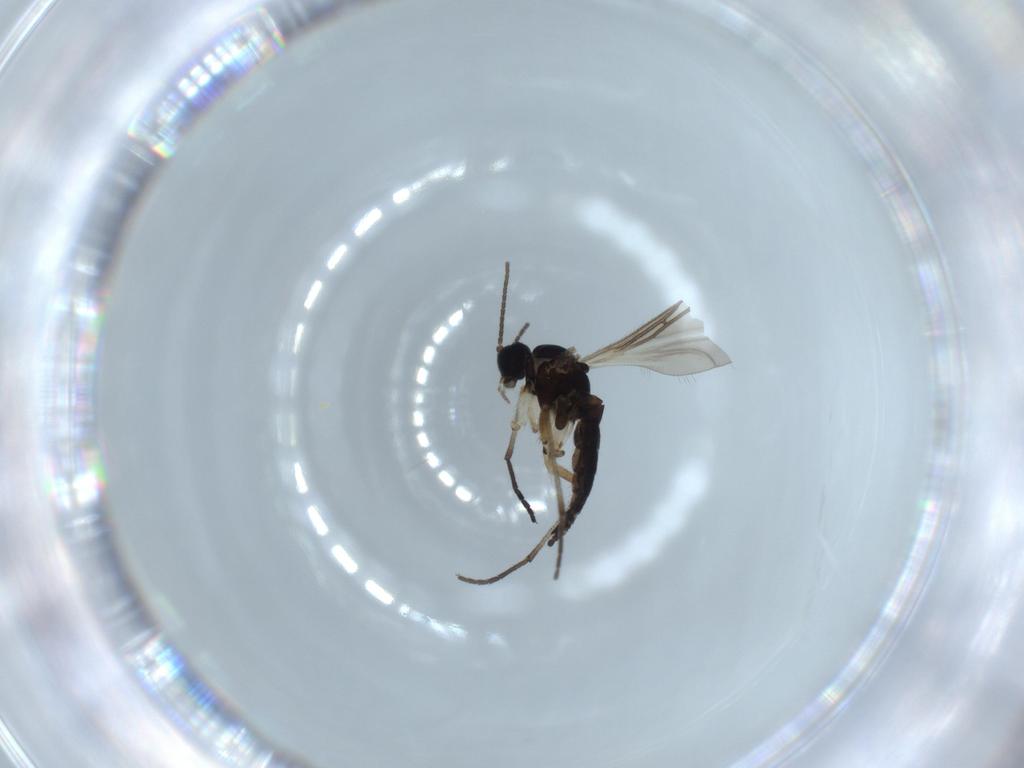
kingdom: Animalia
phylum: Arthropoda
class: Insecta
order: Diptera
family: Sciaridae
